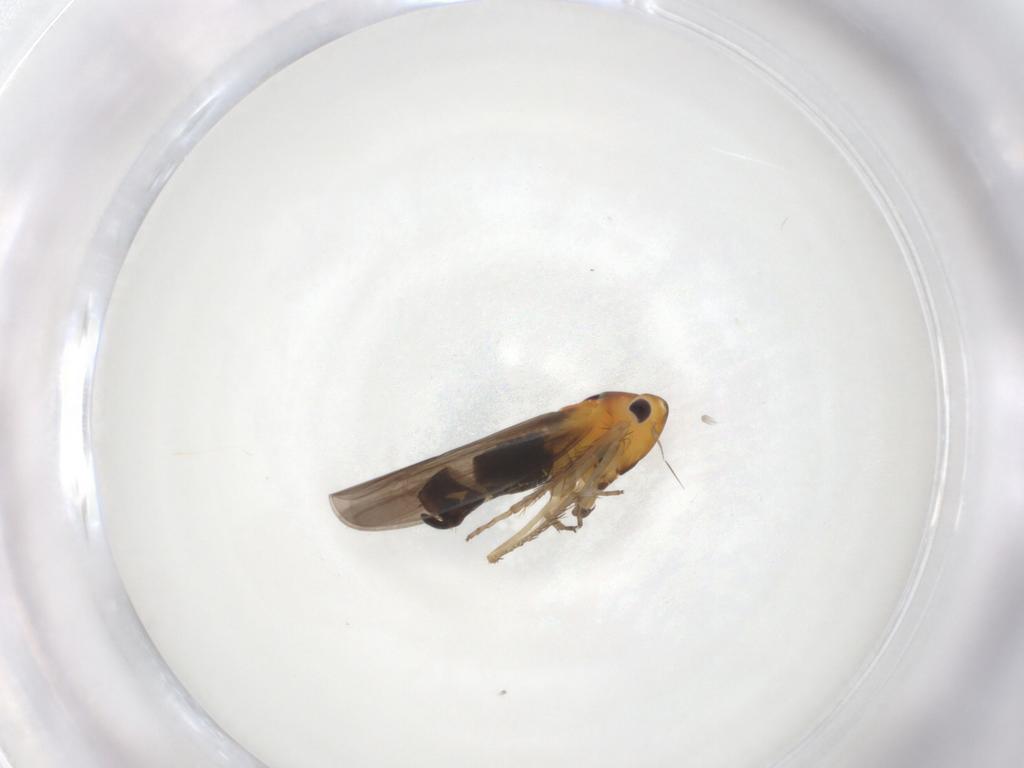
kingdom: Animalia
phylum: Arthropoda
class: Insecta
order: Hemiptera
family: Cicadellidae
